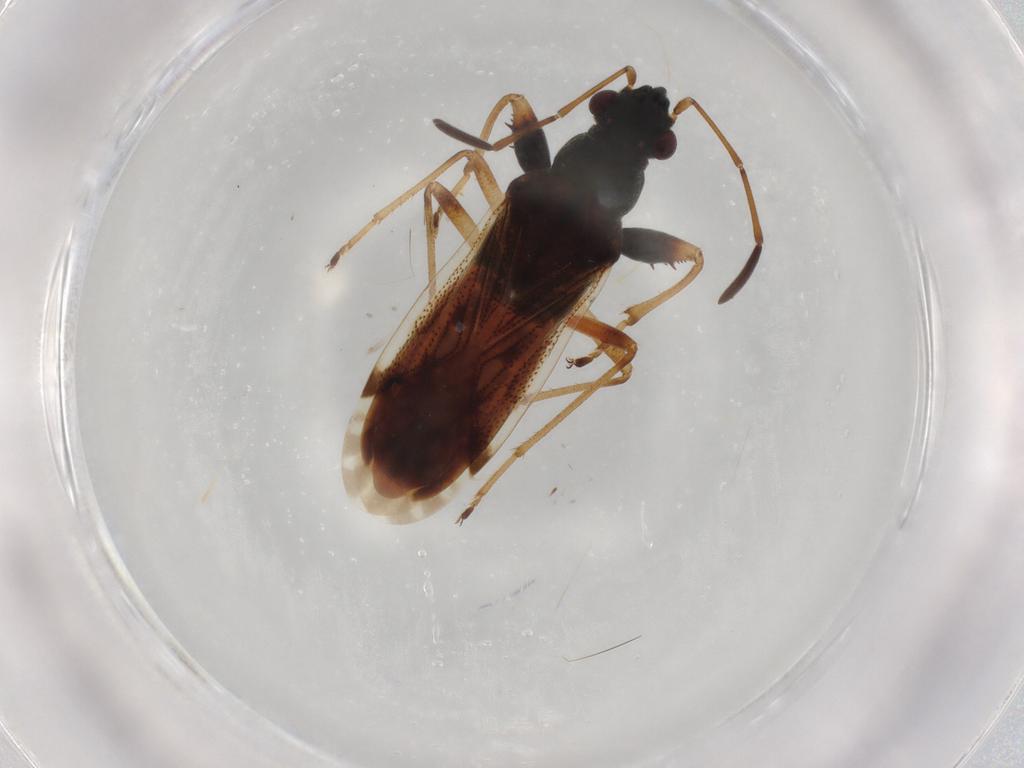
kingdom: Animalia
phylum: Arthropoda
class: Insecta
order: Hemiptera
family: Rhyparochromidae
